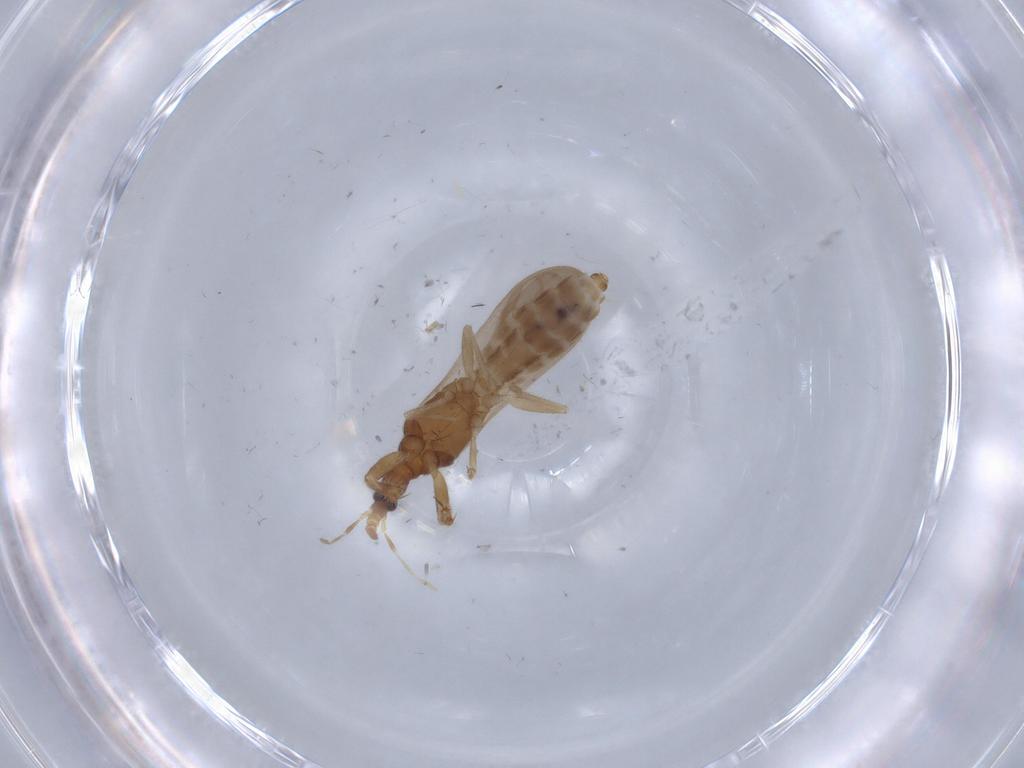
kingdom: Animalia
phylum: Arthropoda
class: Insecta
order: Hemiptera
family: Enicocephalidae
